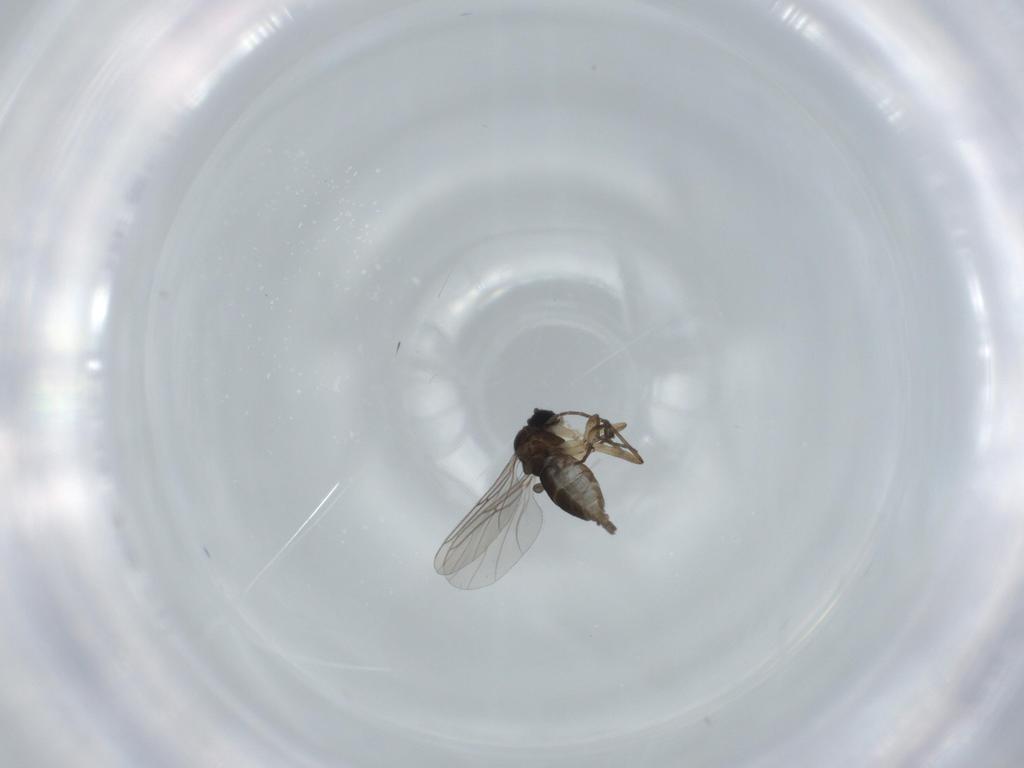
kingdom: Animalia
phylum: Arthropoda
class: Insecta
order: Diptera
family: Sciaridae
